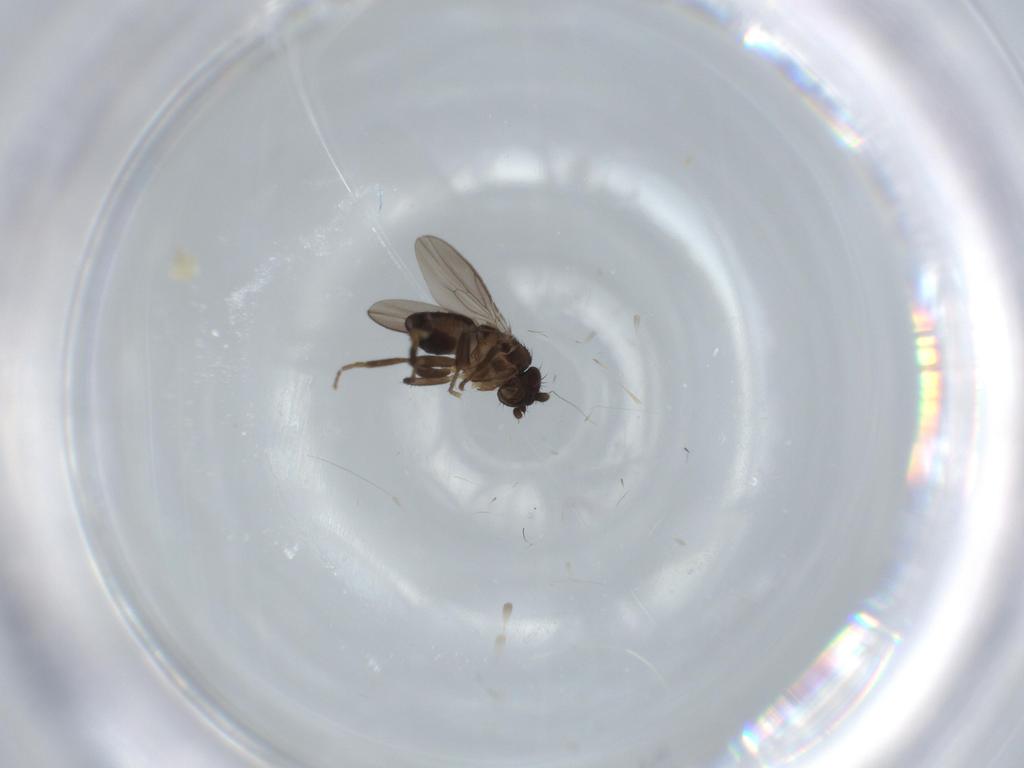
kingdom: Animalia
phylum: Arthropoda
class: Insecta
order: Diptera
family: Sphaeroceridae
